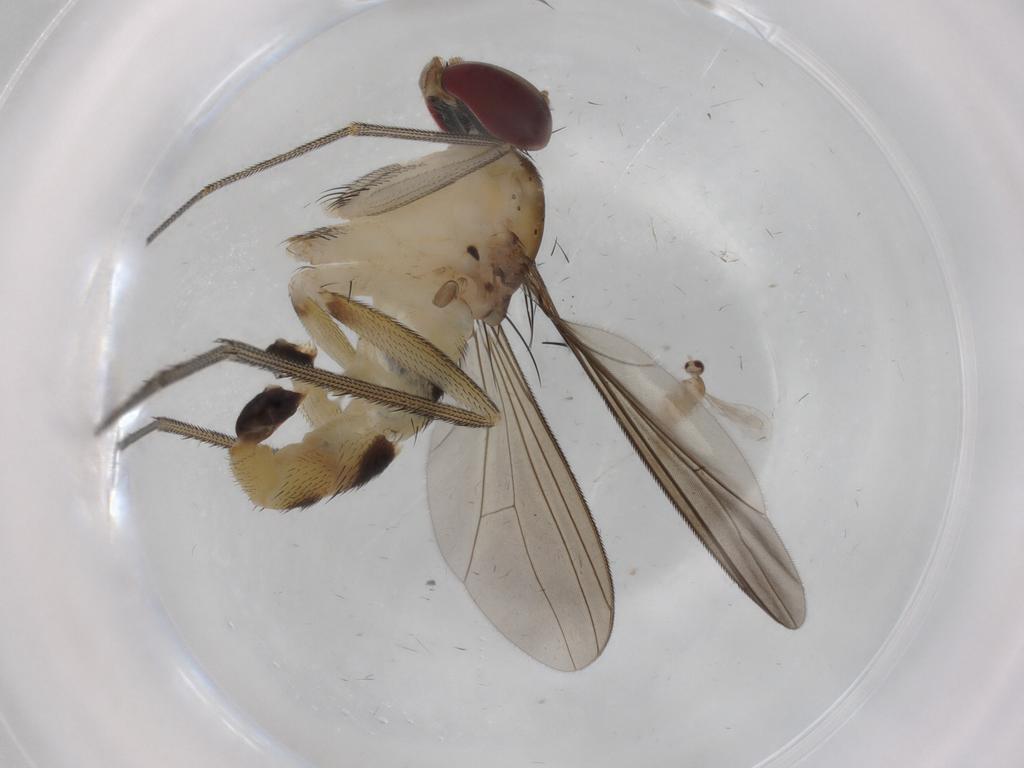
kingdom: Animalia
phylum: Arthropoda
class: Insecta
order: Diptera
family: Dolichopodidae
